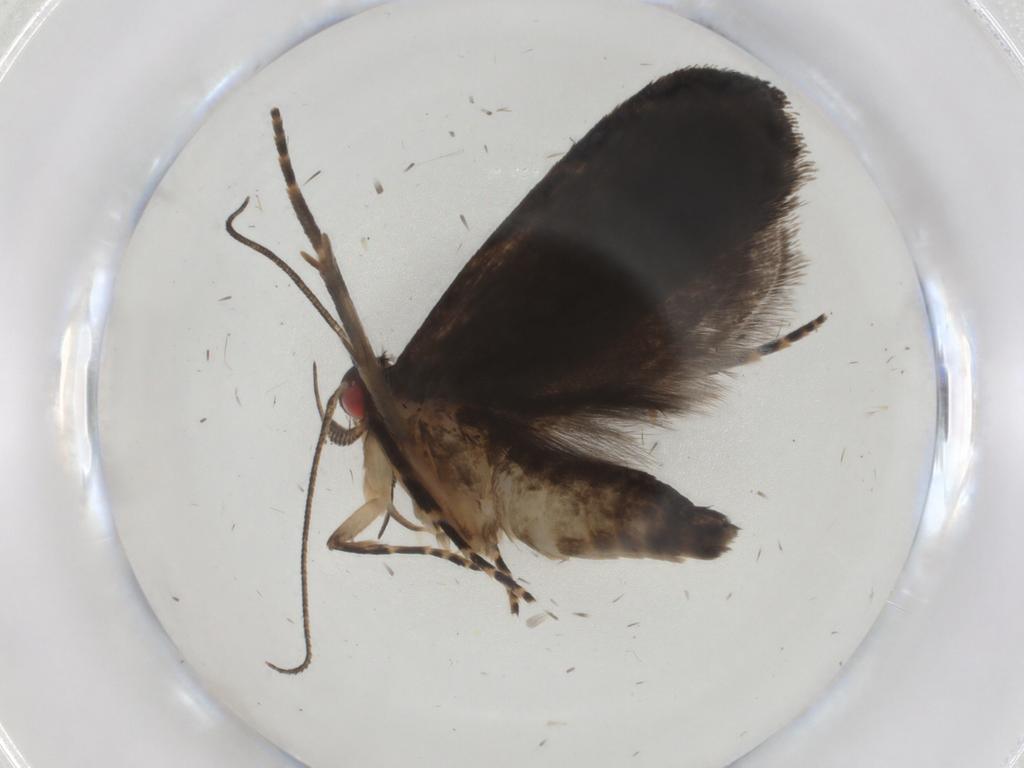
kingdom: Animalia
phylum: Arthropoda
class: Insecta
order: Lepidoptera
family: Gelechiidae
